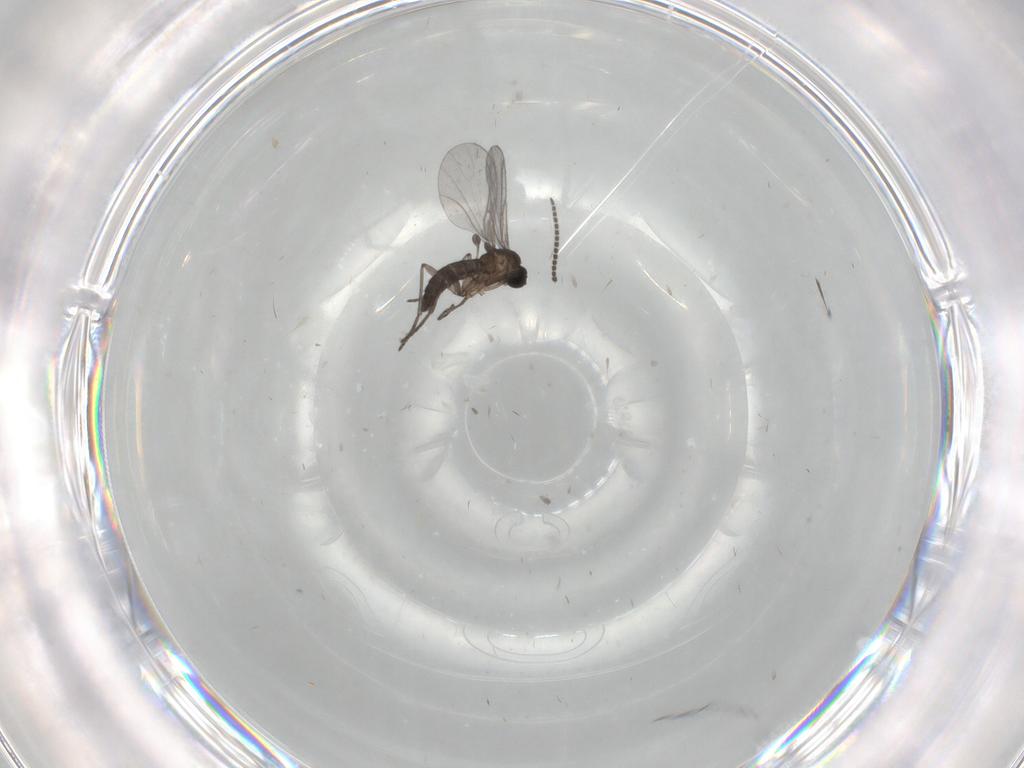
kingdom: Animalia
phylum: Arthropoda
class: Insecta
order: Diptera
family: Sciaridae
